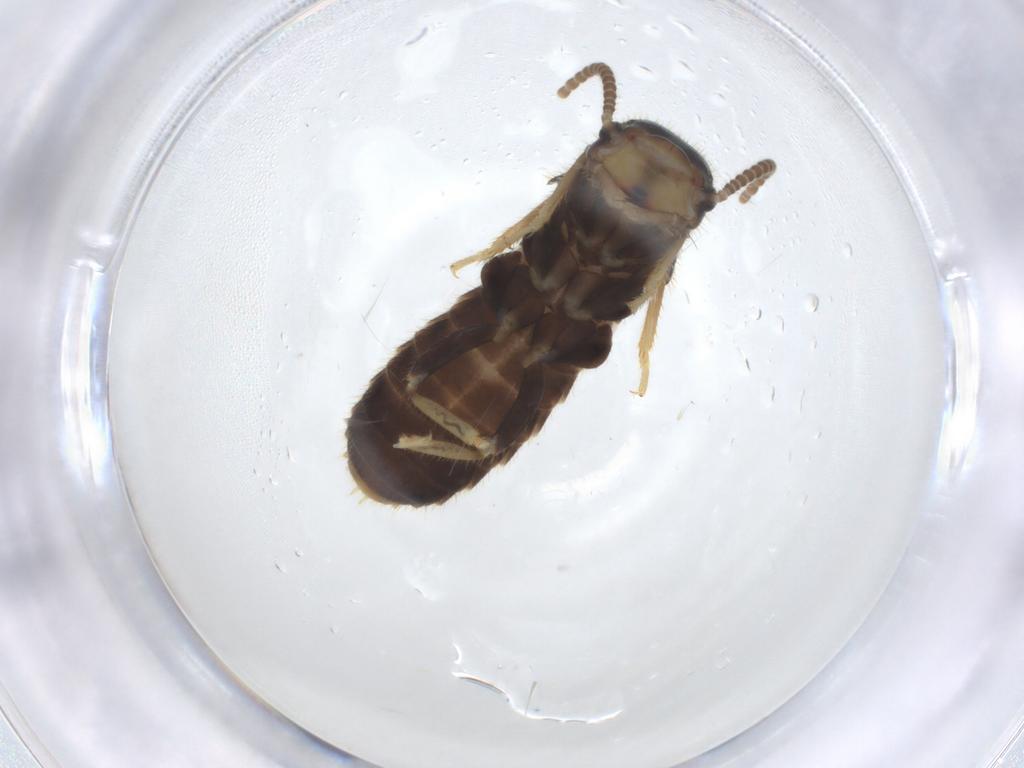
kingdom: Animalia
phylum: Arthropoda
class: Insecta
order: Blattodea
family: Rhinotermitidae
